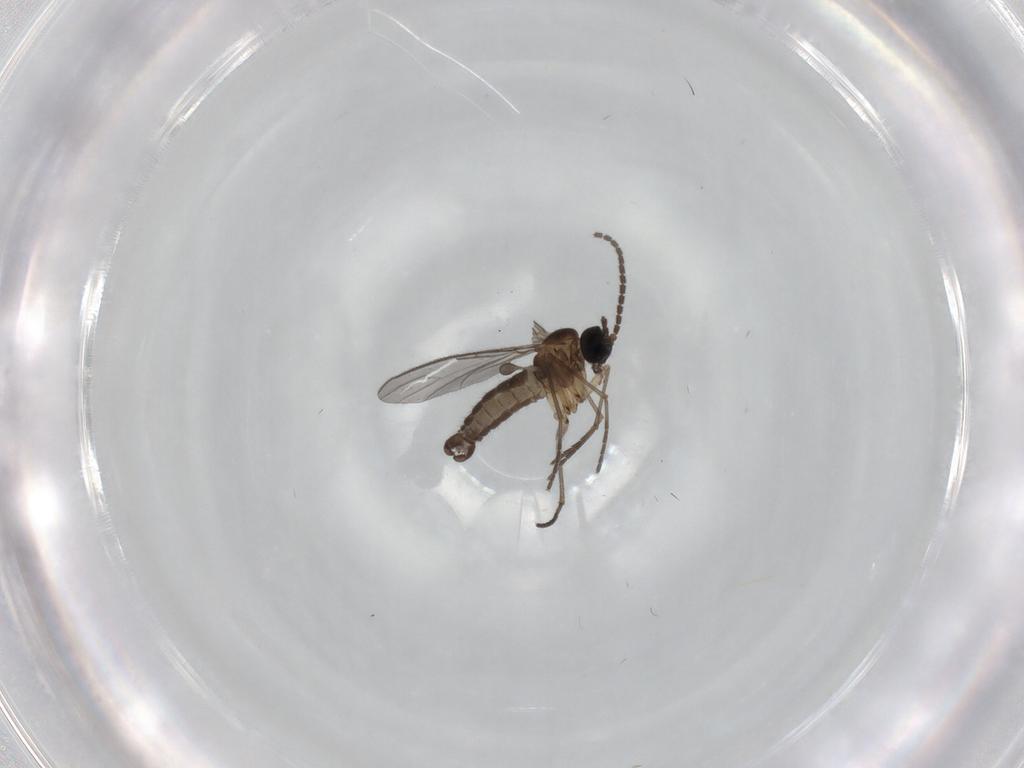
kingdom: Animalia
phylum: Arthropoda
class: Insecta
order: Diptera
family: Sciaridae
